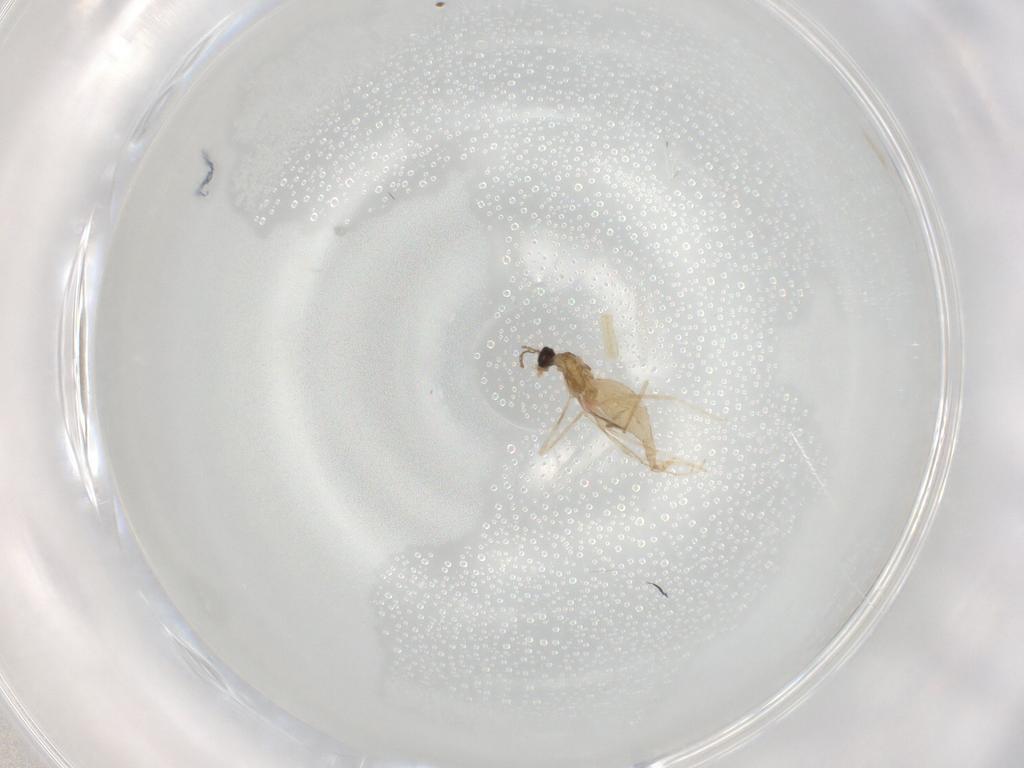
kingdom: Animalia
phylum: Arthropoda
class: Insecta
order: Diptera
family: Cecidomyiidae
